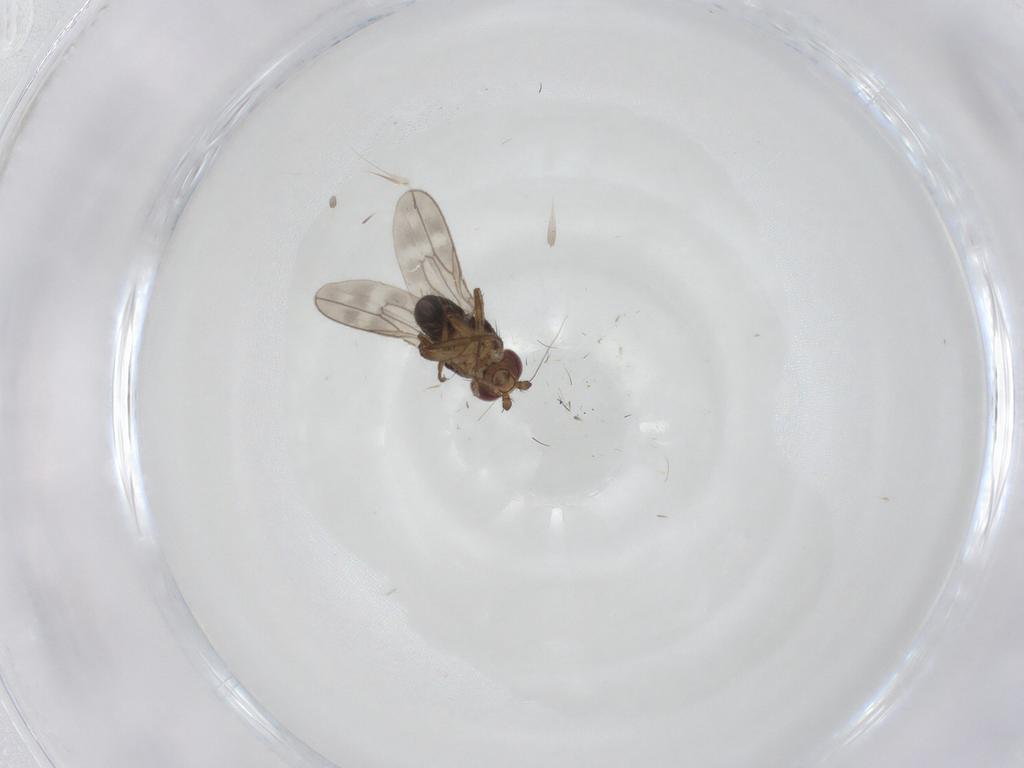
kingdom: Animalia
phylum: Arthropoda
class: Insecta
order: Diptera
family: Sphaeroceridae
